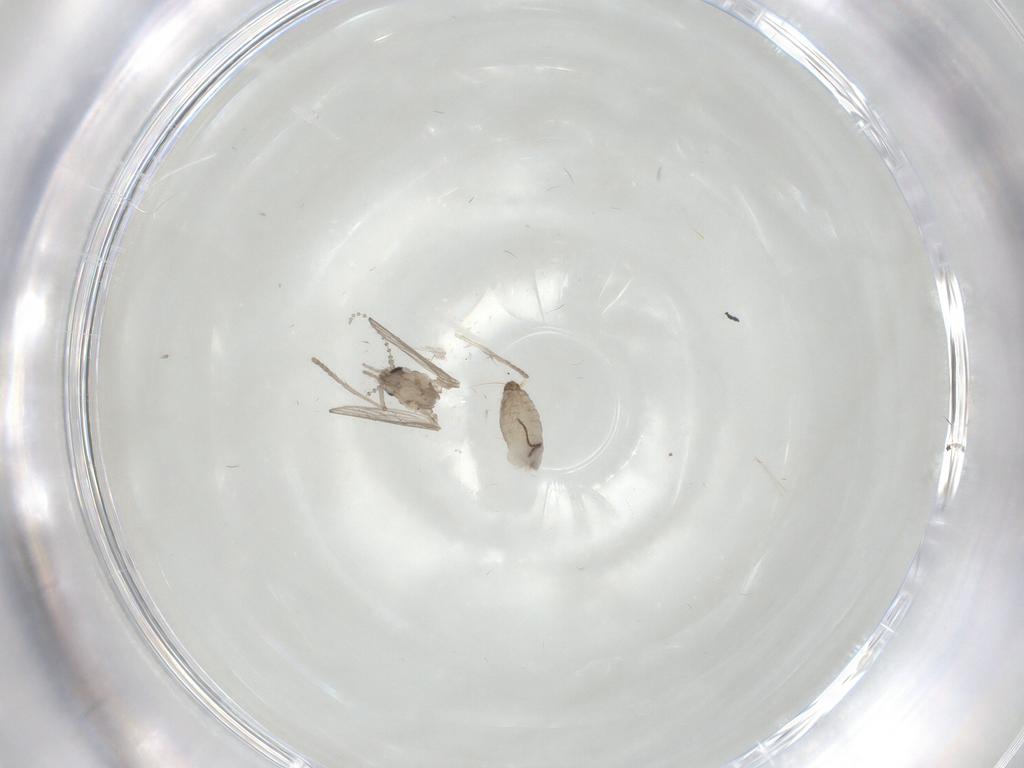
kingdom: Animalia
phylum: Arthropoda
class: Insecta
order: Diptera
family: Psychodidae
